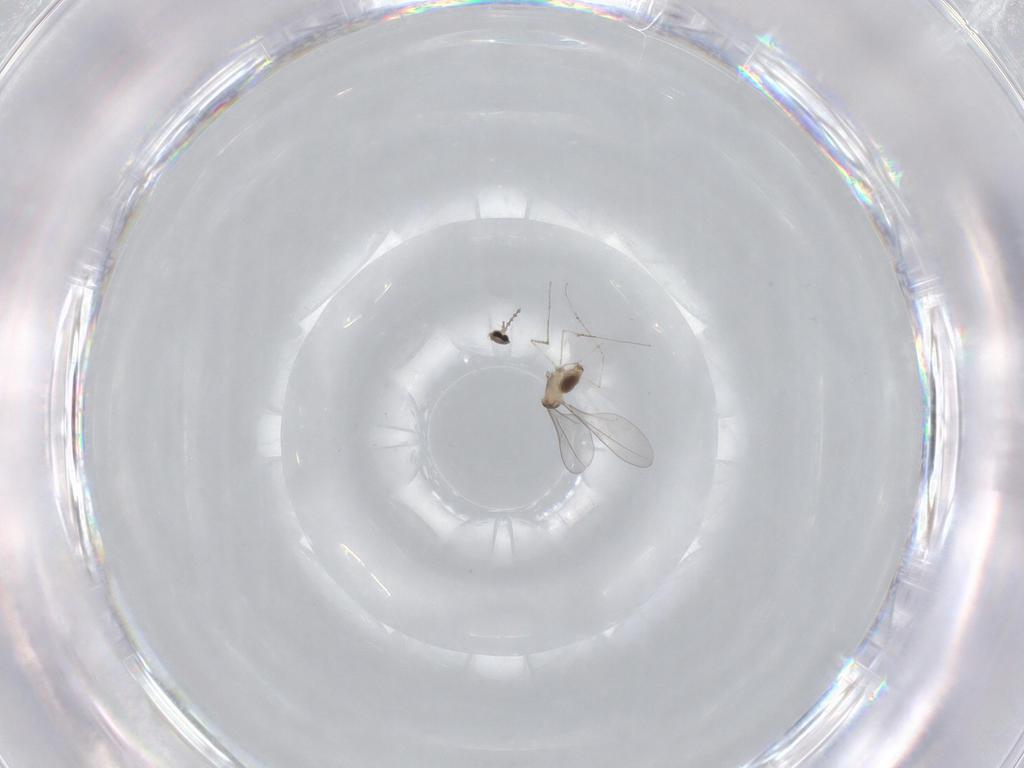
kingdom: Animalia
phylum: Arthropoda
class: Insecta
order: Diptera
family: Cecidomyiidae
